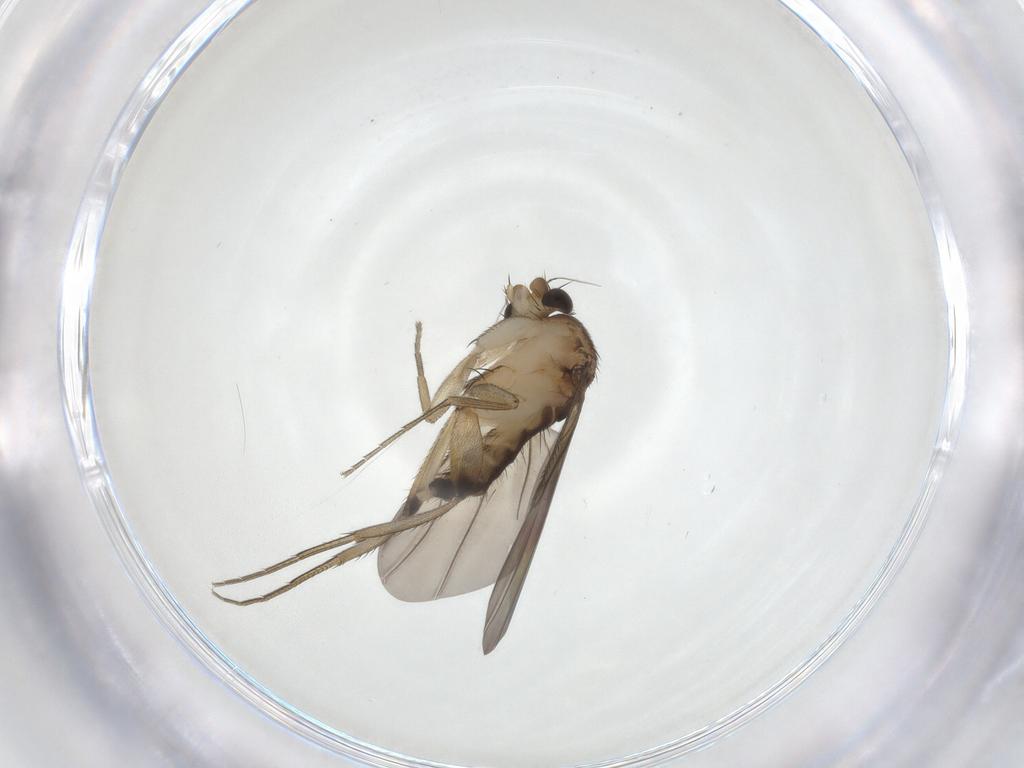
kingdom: Animalia
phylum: Arthropoda
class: Insecta
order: Diptera
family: Phoridae
